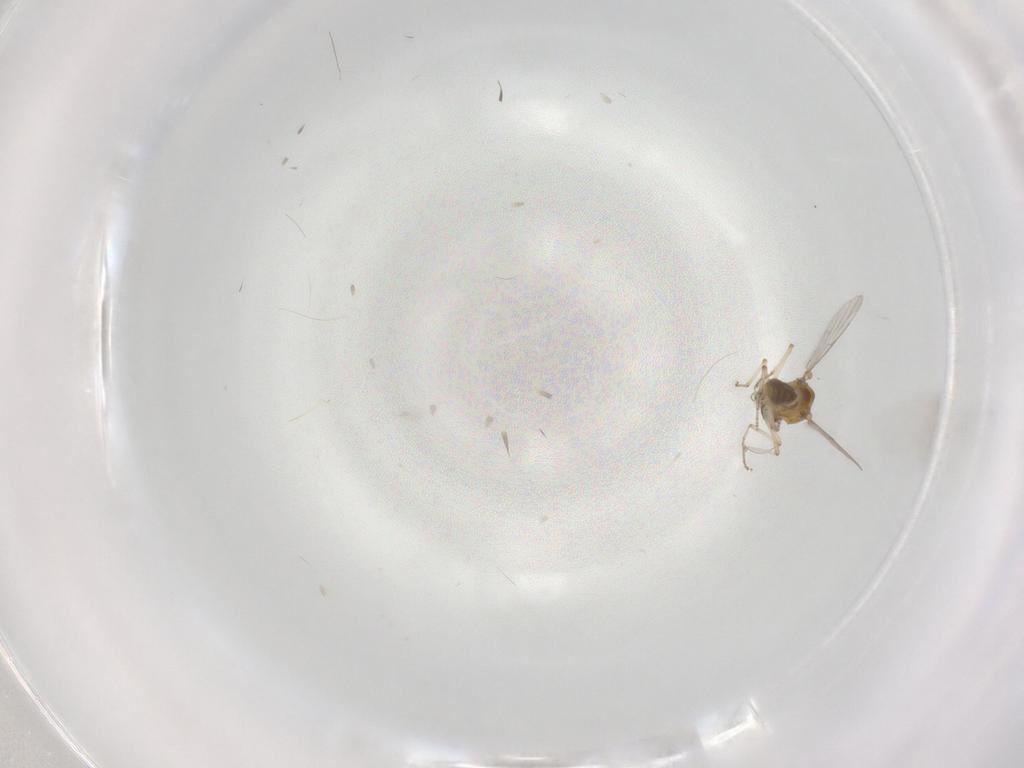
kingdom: Animalia
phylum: Arthropoda
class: Insecta
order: Diptera
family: Chironomidae
